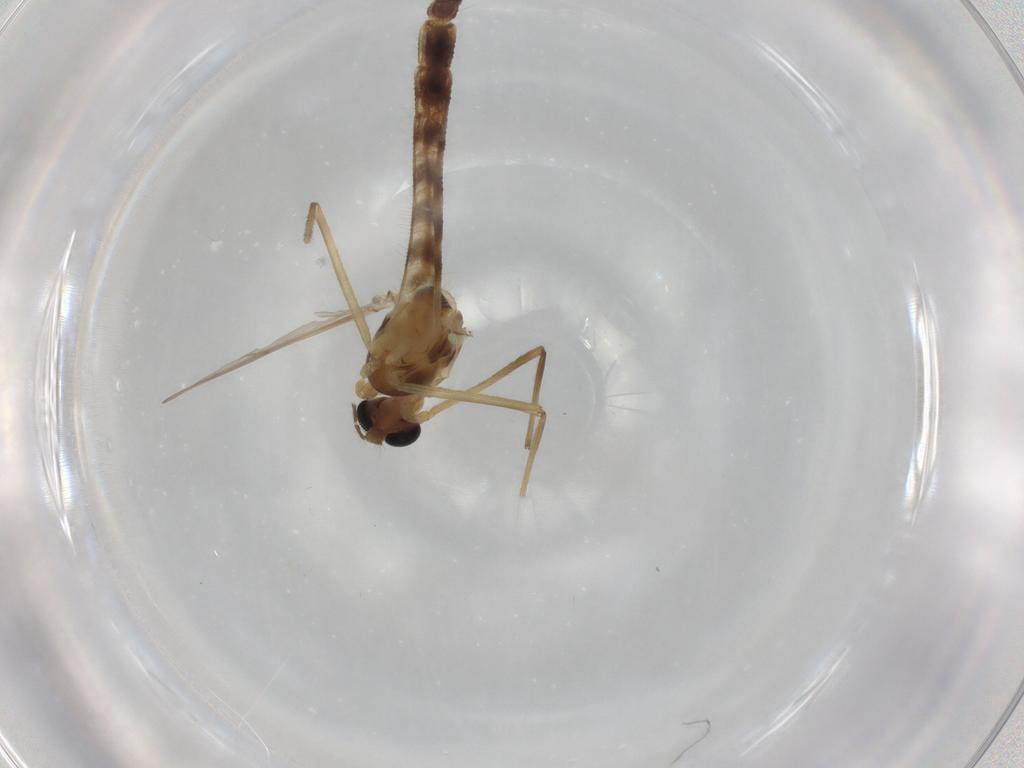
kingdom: Animalia
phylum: Arthropoda
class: Insecta
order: Diptera
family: Chironomidae
